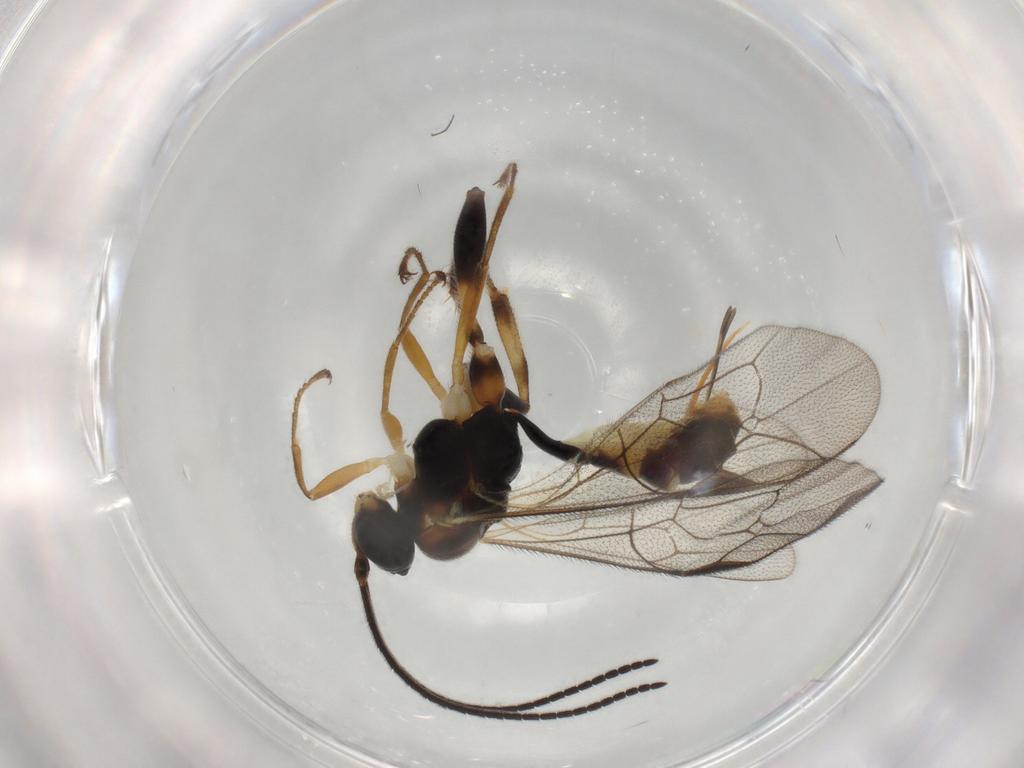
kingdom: Animalia
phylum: Arthropoda
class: Insecta
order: Hymenoptera
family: Ichneumonidae
